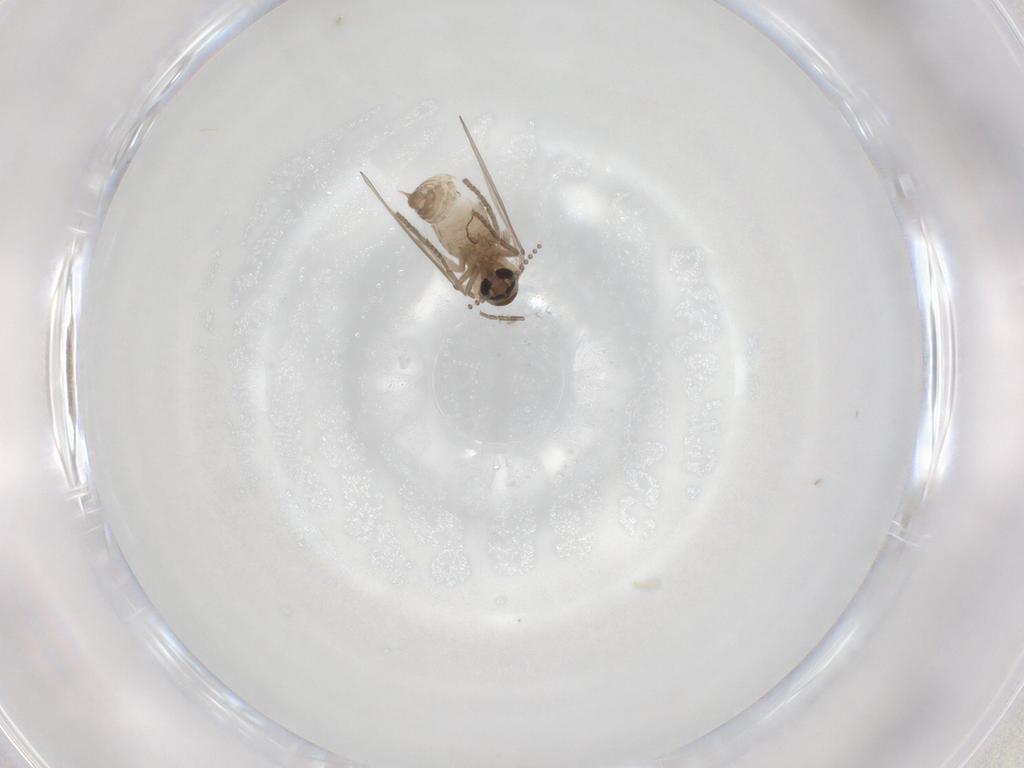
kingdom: Animalia
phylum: Arthropoda
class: Insecta
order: Diptera
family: Psychodidae
